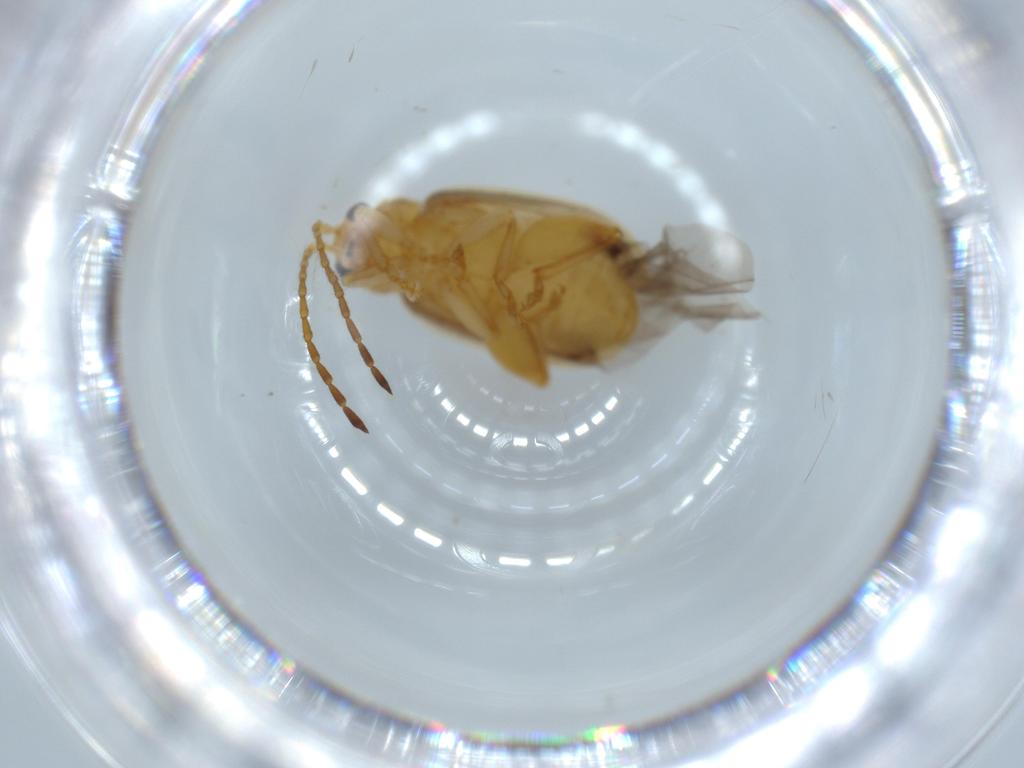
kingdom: Animalia
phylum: Arthropoda
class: Insecta
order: Coleoptera
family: Chrysomelidae
